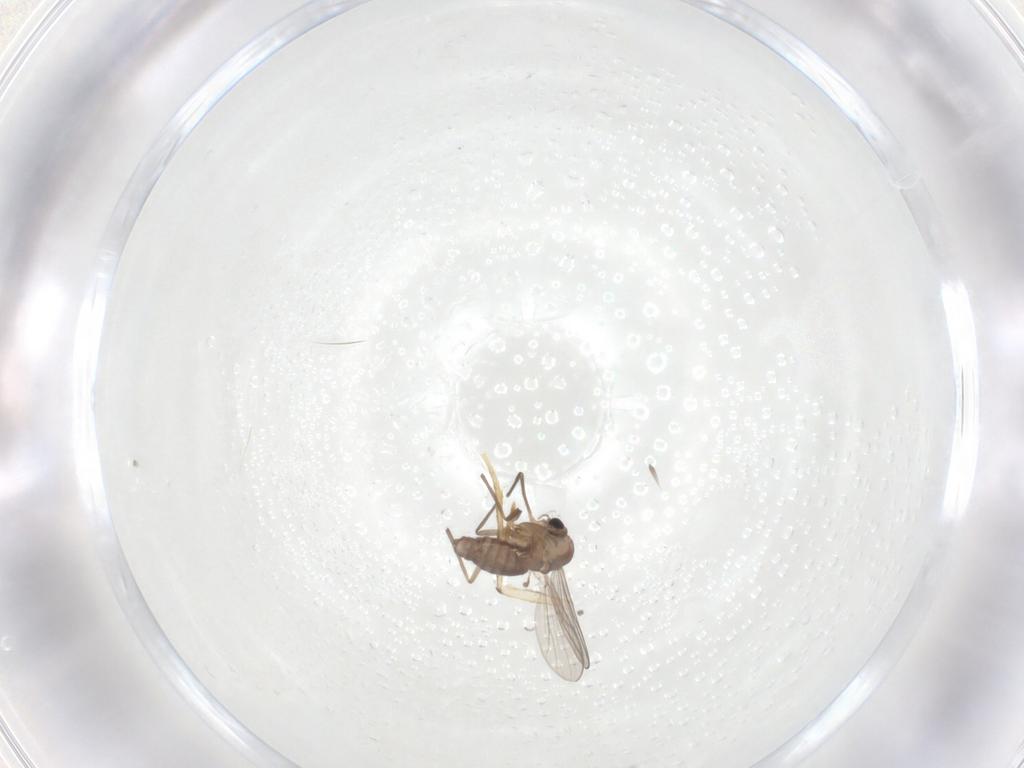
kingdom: Animalia
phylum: Arthropoda
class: Insecta
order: Diptera
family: Chironomidae
